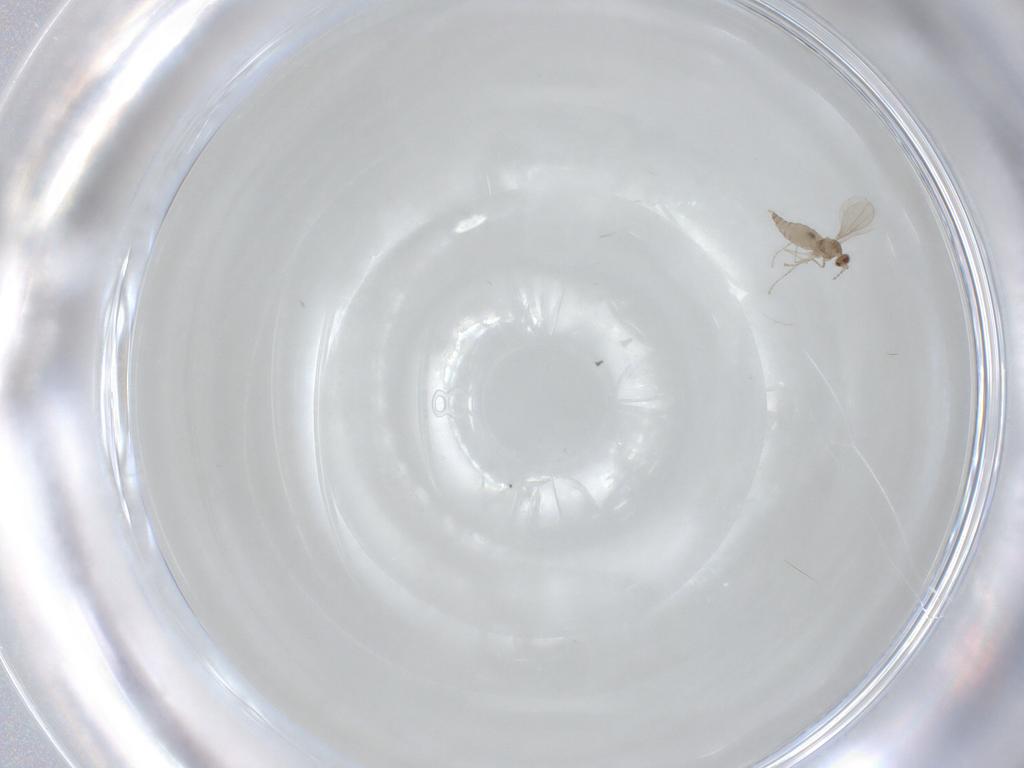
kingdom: Animalia
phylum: Arthropoda
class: Insecta
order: Diptera
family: Cecidomyiidae
